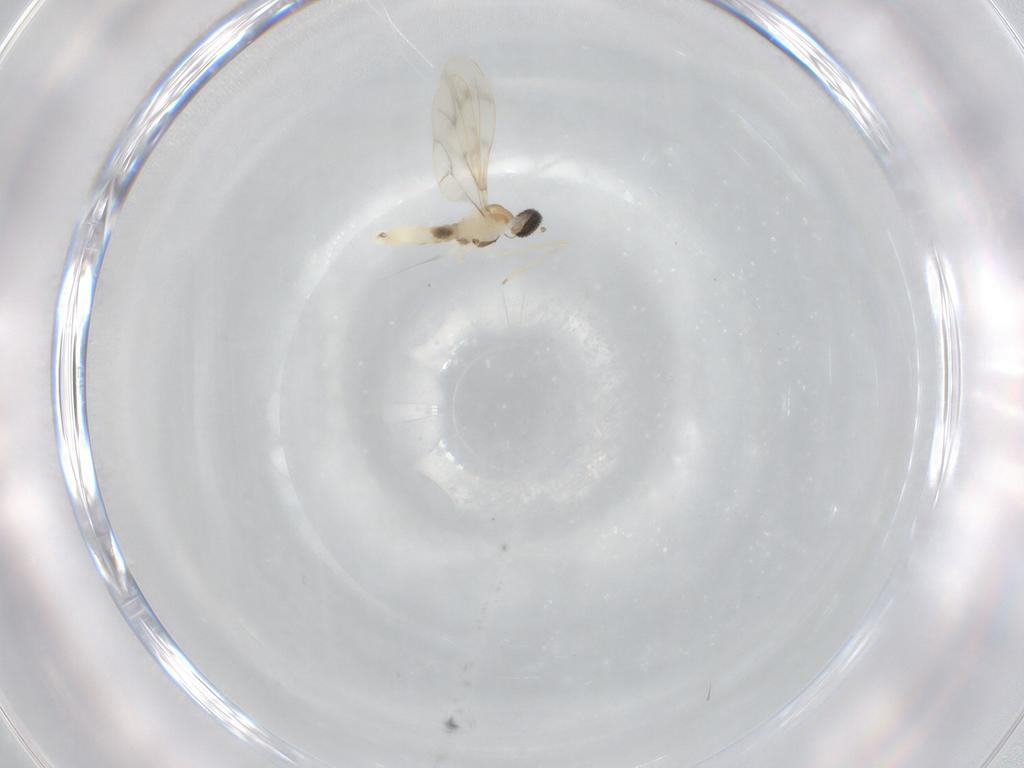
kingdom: Animalia
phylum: Arthropoda
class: Insecta
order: Diptera
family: Cecidomyiidae
